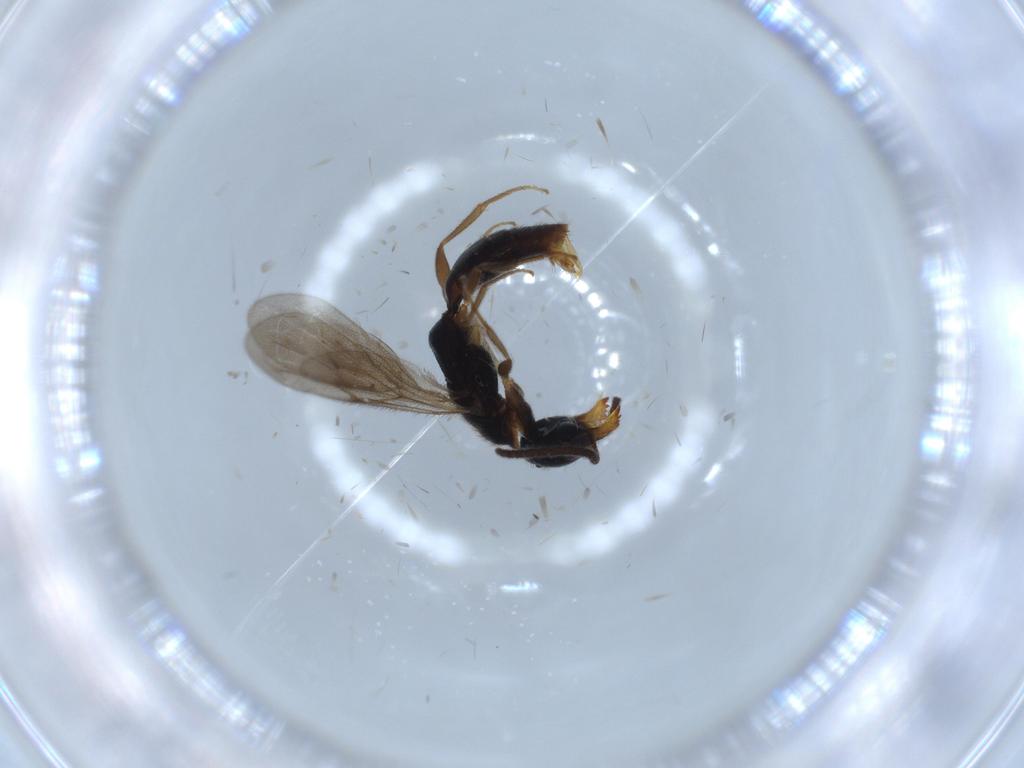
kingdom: Animalia
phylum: Arthropoda
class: Insecta
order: Hymenoptera
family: Bethylidae
